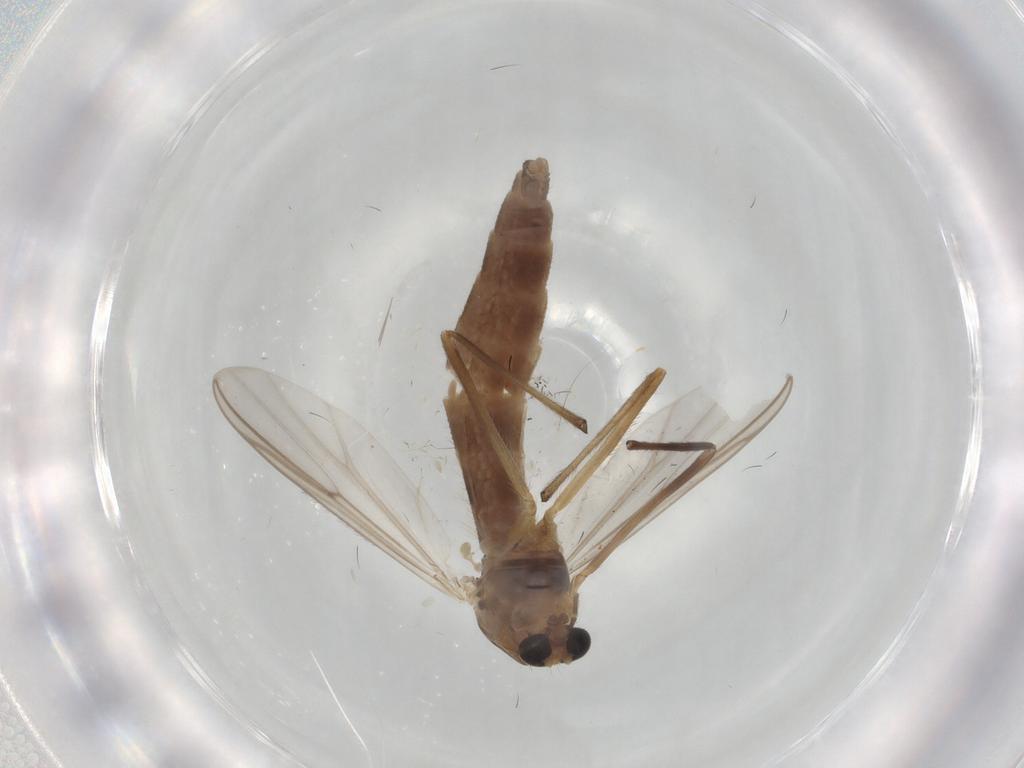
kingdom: Animalia
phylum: Arthropoda
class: Insecta
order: Diptera
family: Chironomidae
